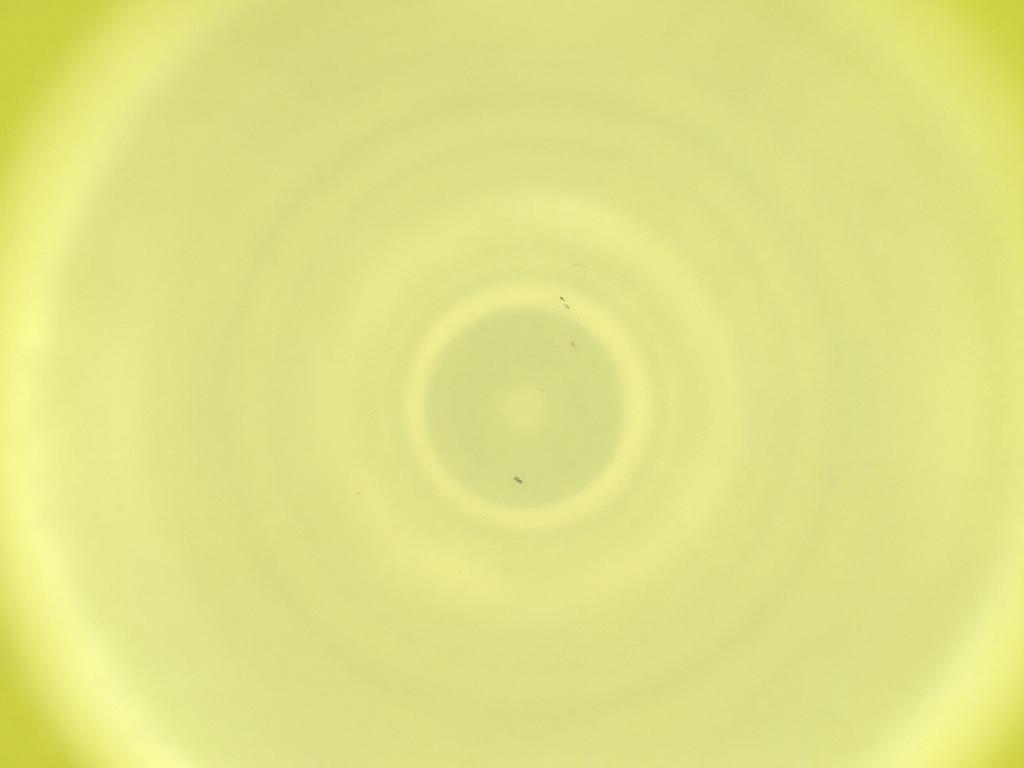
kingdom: Animalia
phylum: Arthropoda
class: Insecta
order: Diptera
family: Cecidomyiidae
